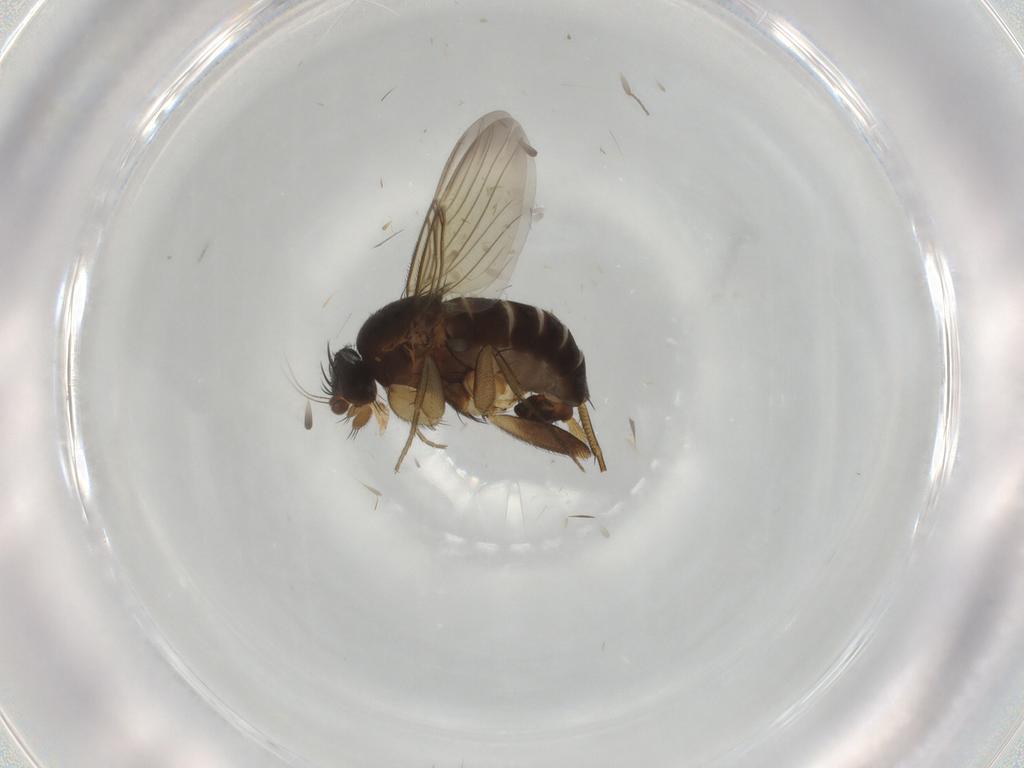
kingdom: Animalia
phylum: Arthropoda
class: Insecta
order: Diptera
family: Phoridae
